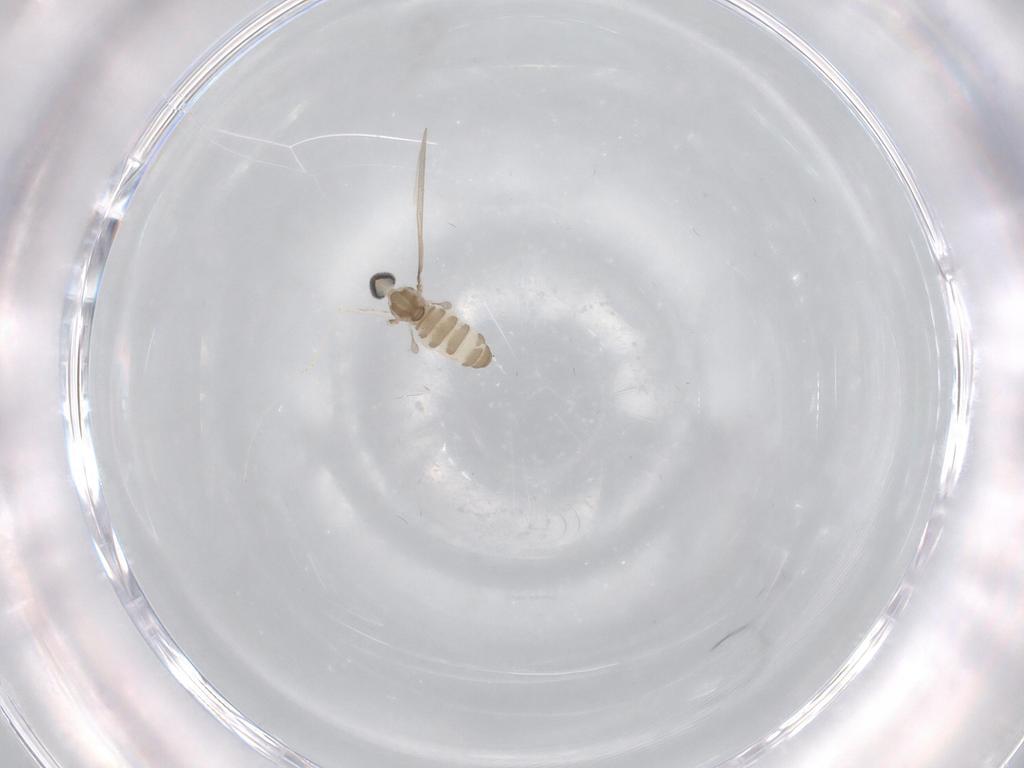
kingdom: Animalia
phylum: Arthropoda
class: Insecta
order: Diptera
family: Cecidomyiidae
